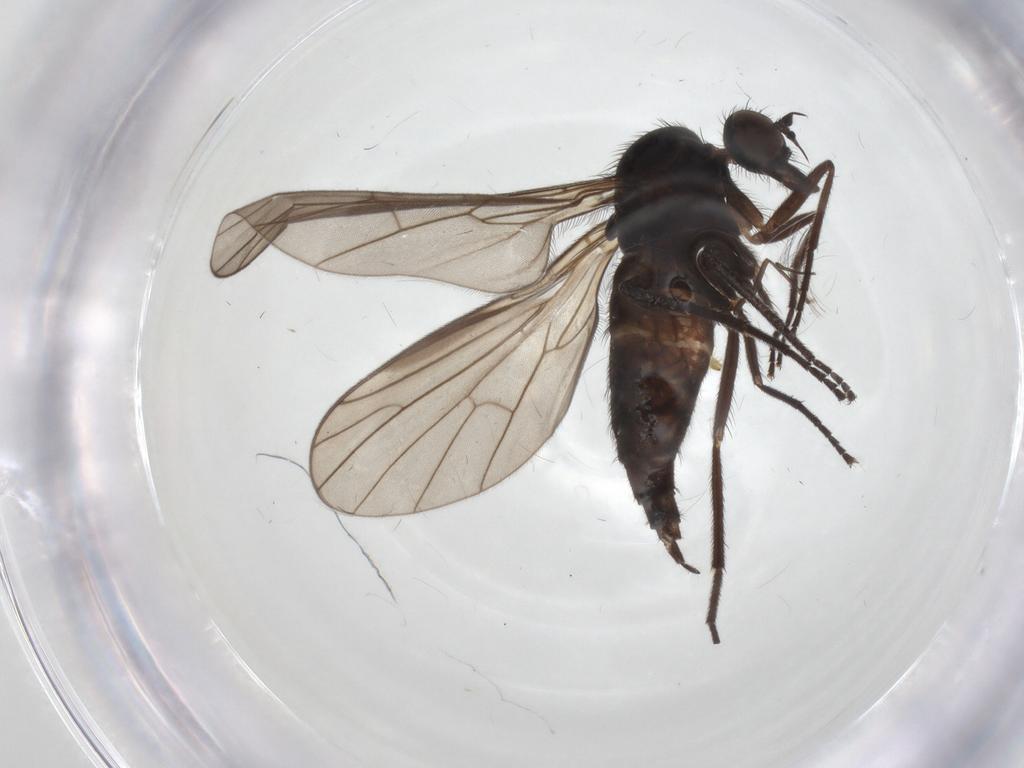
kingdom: Animalia
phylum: Arthropoda
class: Insecta
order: Diptera
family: Empididae
